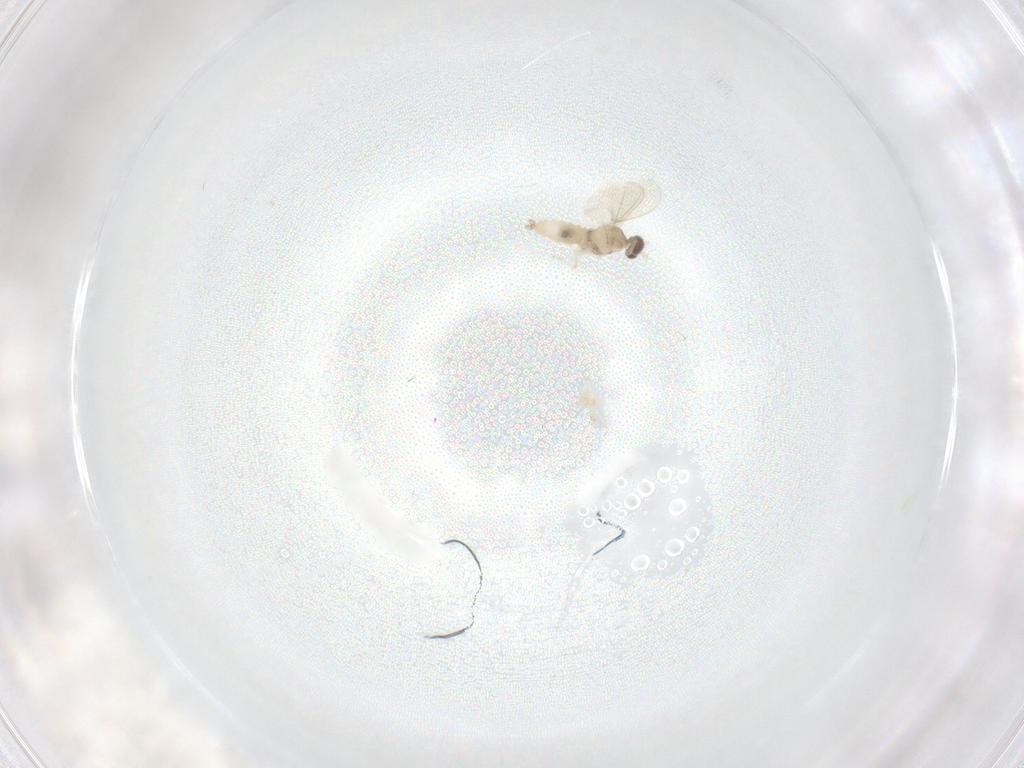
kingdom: Animalia
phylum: Arthropoda
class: Insecta
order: Diptera
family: Cecidomyiidae
